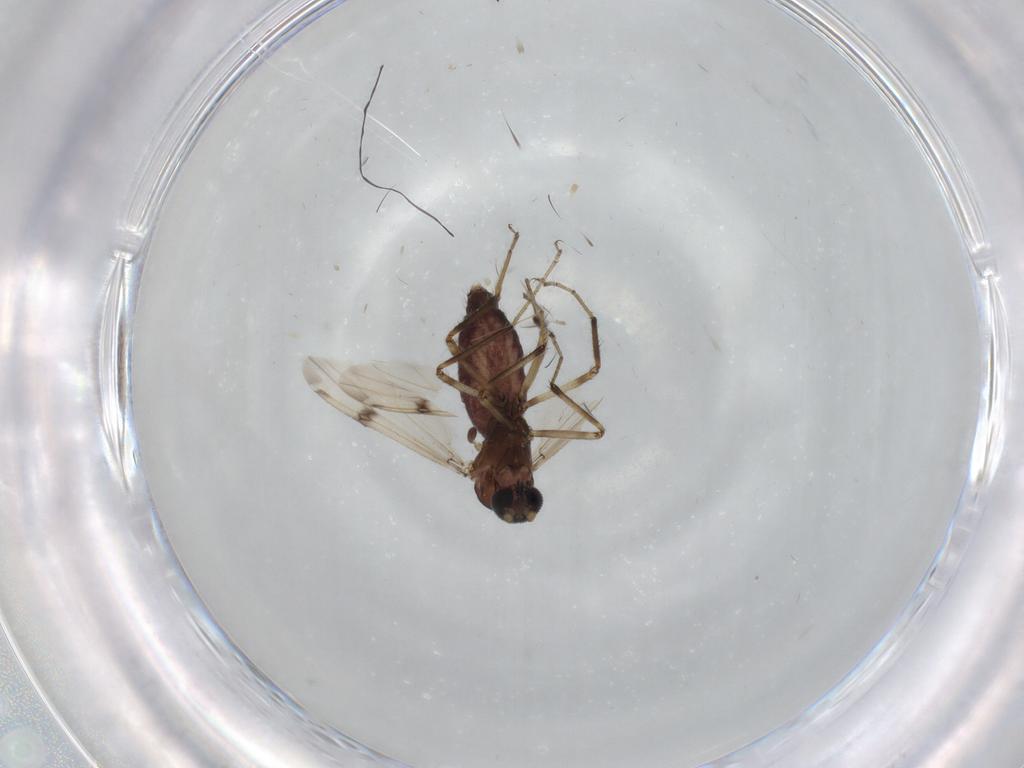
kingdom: Animalia
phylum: Arthropoda
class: Insecta
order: Diptera
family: Ceratopogonidae
